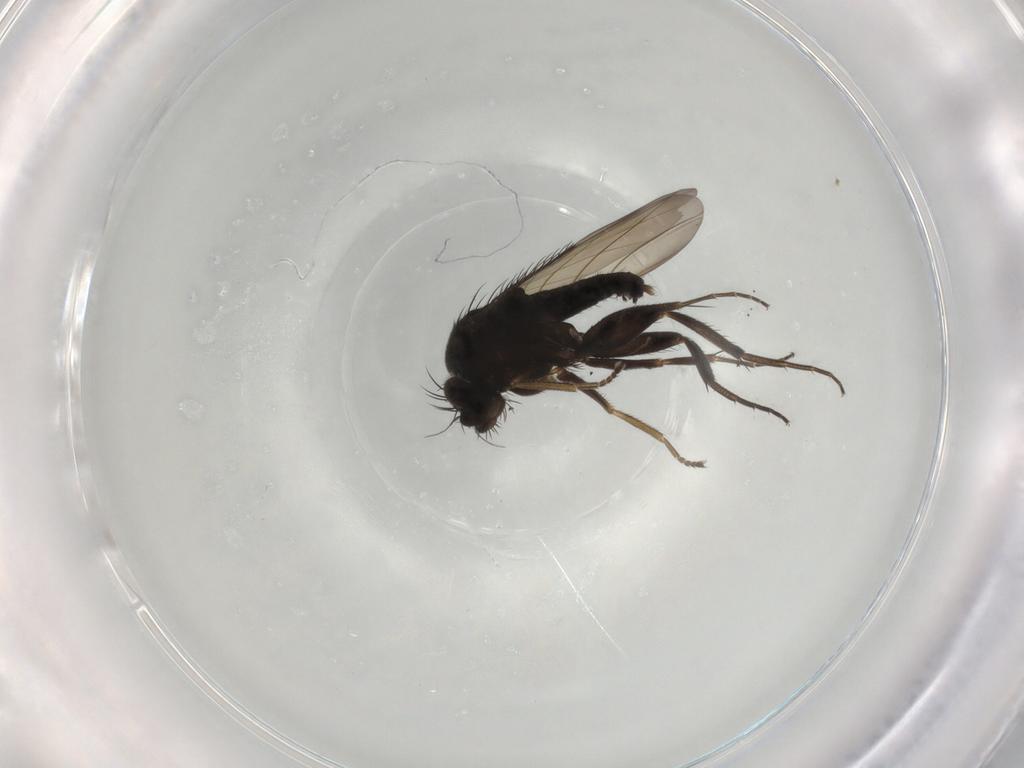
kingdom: Animalia
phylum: Arthropoda
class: Insecta
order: Diptera
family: Phoridae
